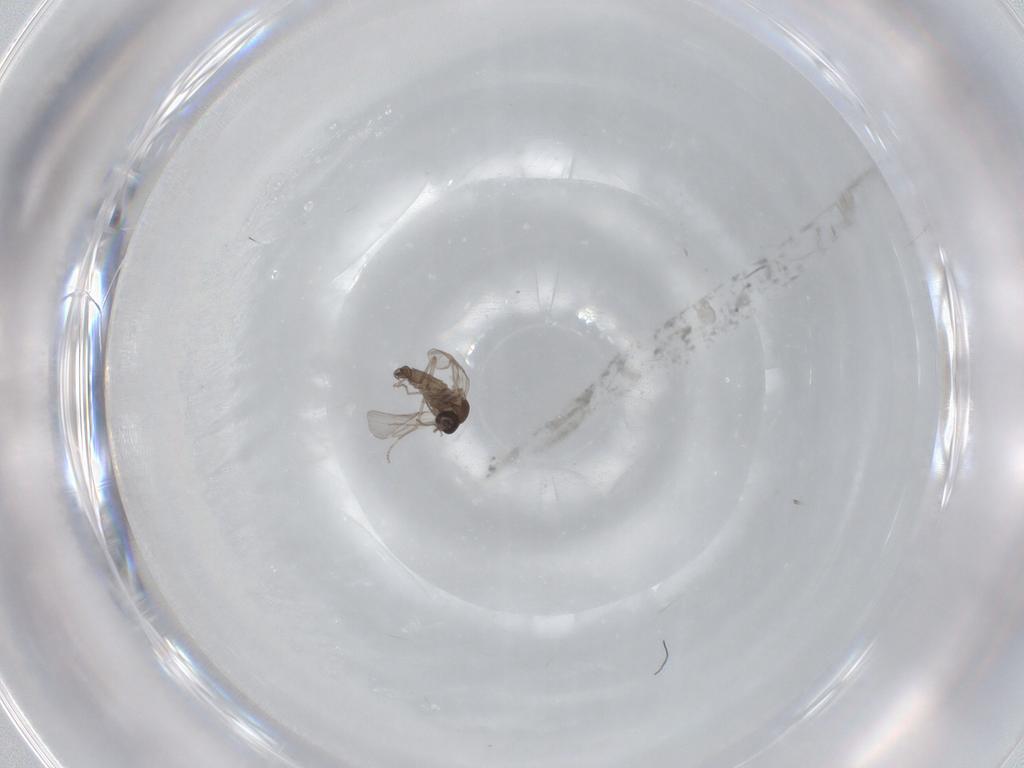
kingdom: Animalia
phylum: Arthropoda
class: Insecta
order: Diptera
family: Ceratopogonidae
